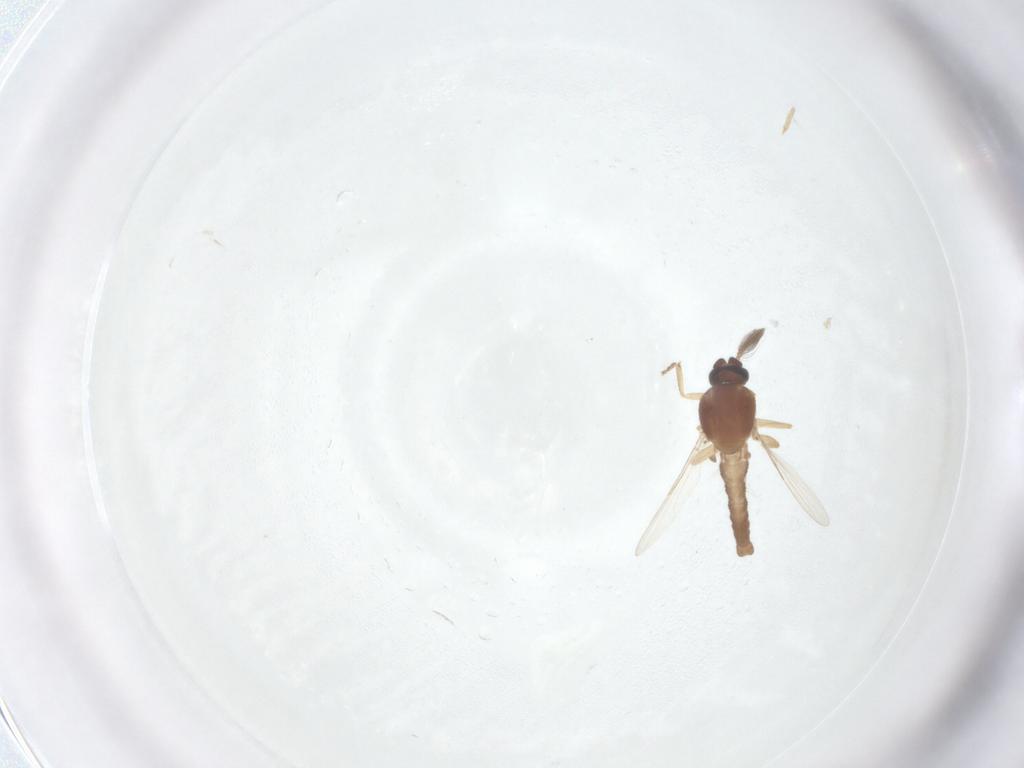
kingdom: Animalia
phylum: Arthropoda
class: Insecta
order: Diptera
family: Ceratopogonidae
